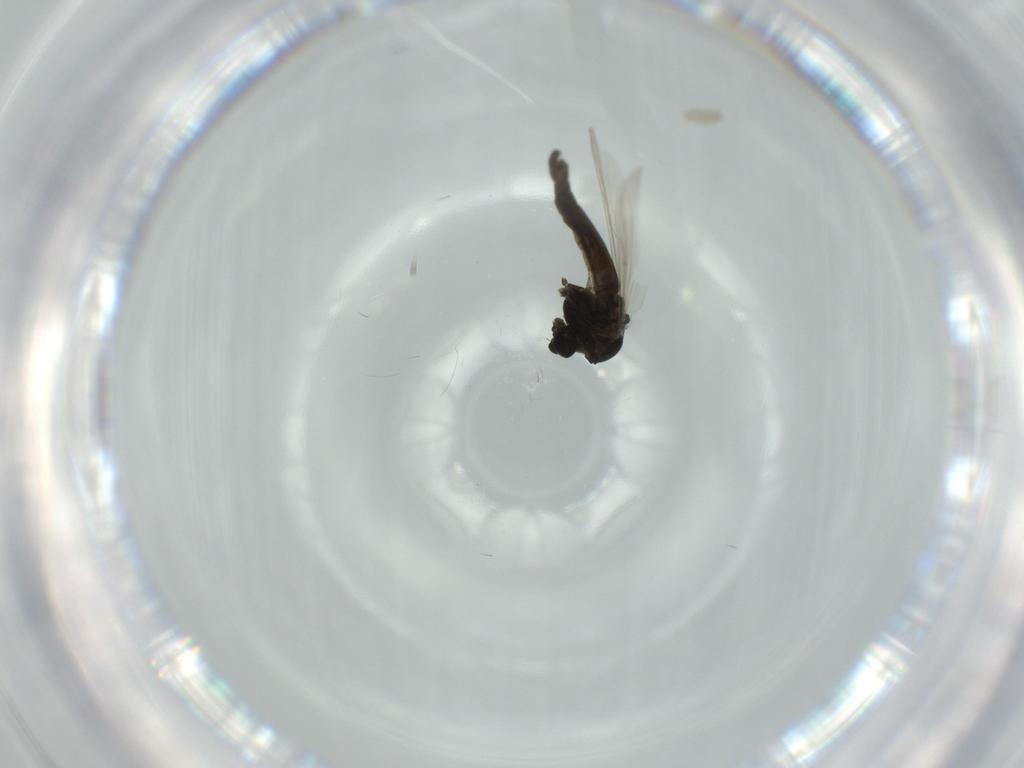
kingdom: Animalia
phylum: Arthropoda
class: Insecta
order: Diptera
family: Chironomidae
